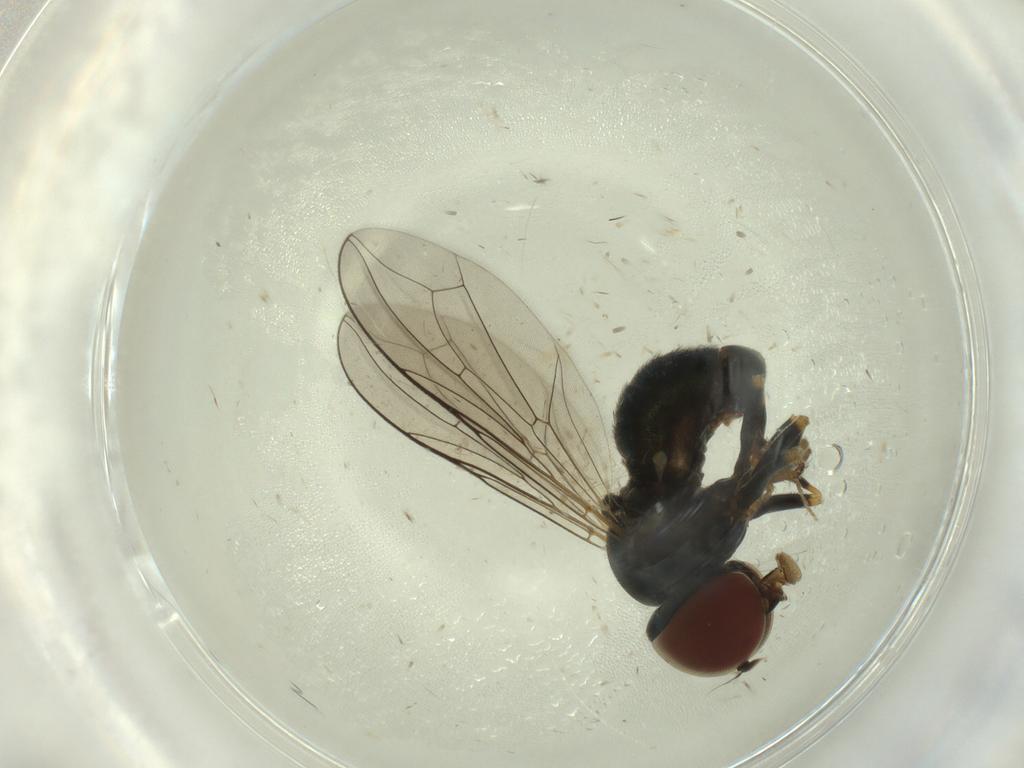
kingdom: Animalia
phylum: Arthropoda
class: Insecta
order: Diptera
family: Pipunculidae
